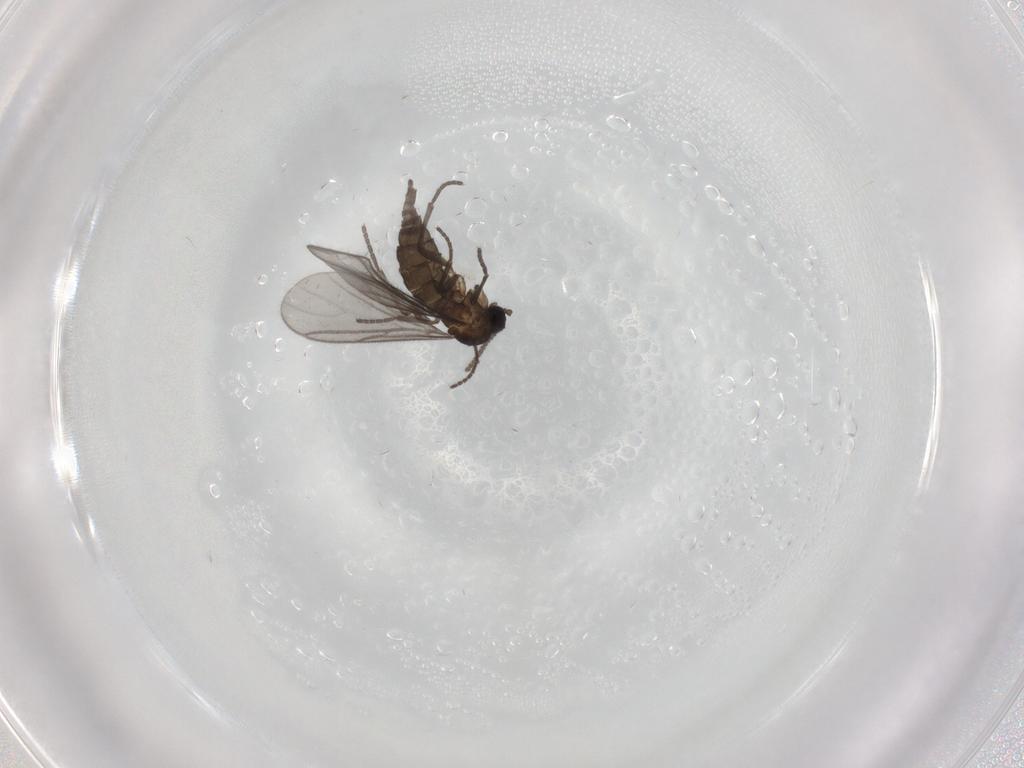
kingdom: Animalia
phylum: Arthropoda
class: Insecta
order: Diptera
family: Sciaridae
